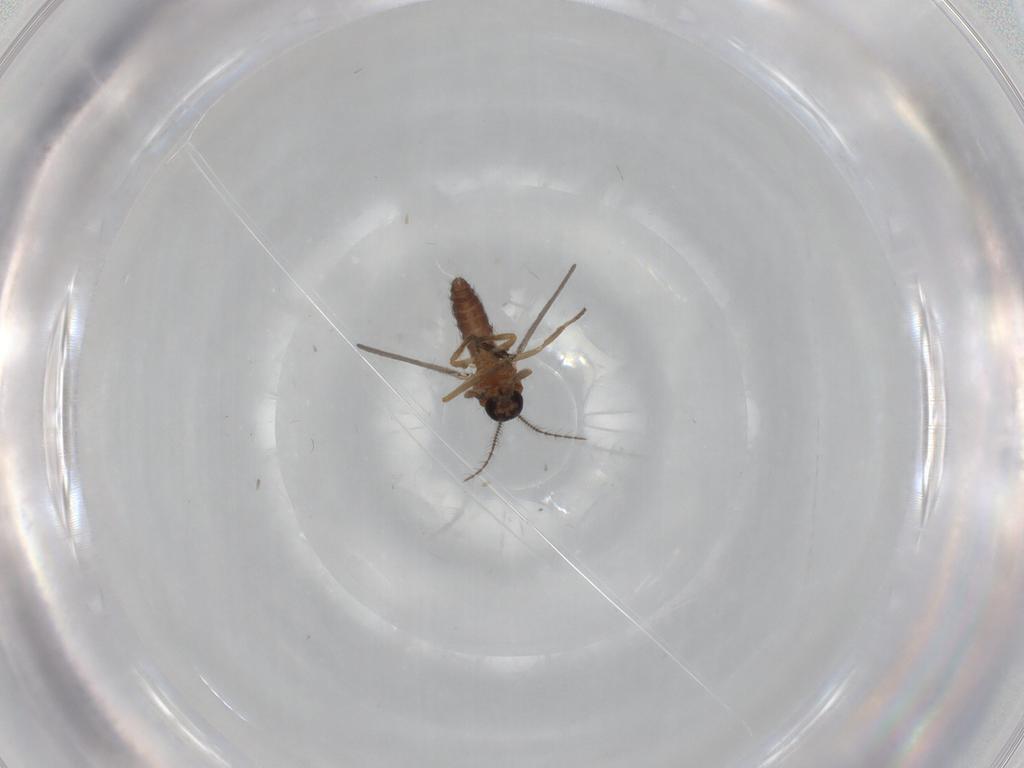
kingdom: Animalia
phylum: Arthropoda
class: Insecta
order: Diptera
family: Ceratopogonidae
